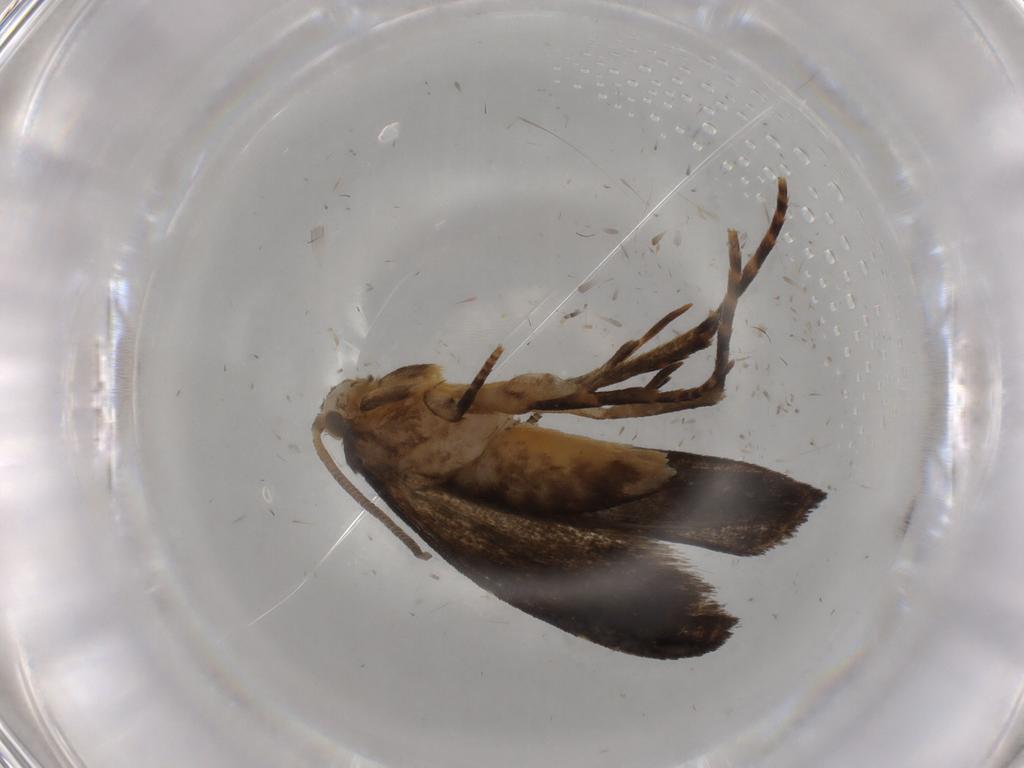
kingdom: Animalia
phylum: Arthropoda
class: Insecta
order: Lepidoptera
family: Dryadaulidae
